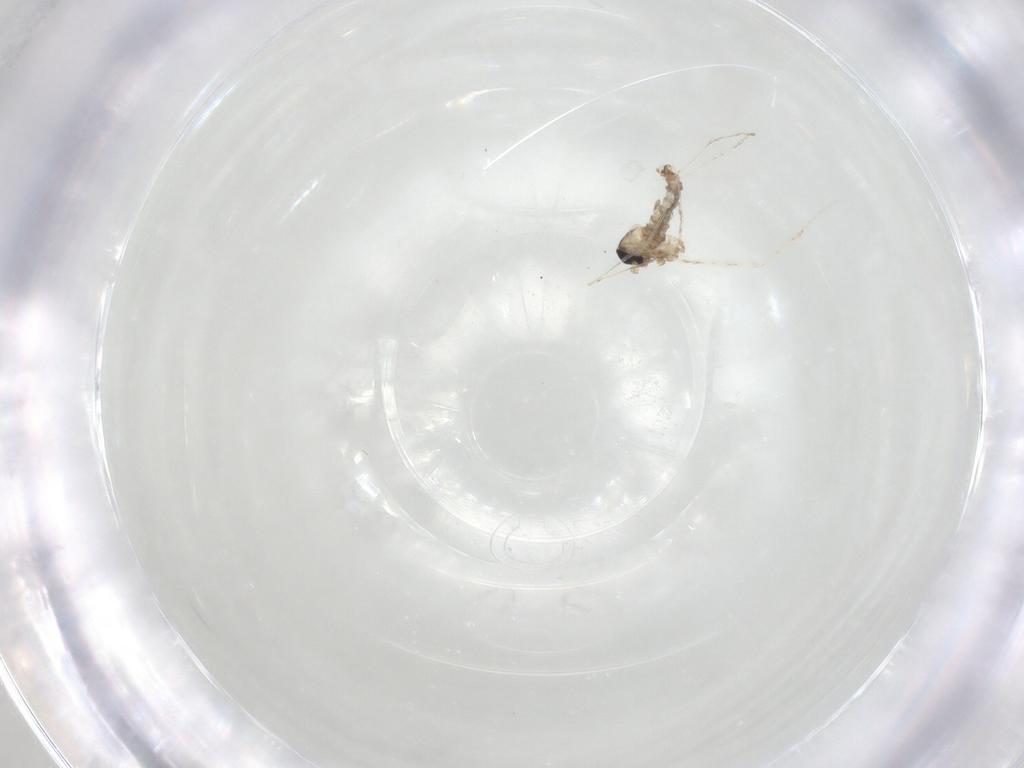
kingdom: Animalia
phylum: Arthropoda
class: Insecta
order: Diptera
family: Cecidomyiidae
